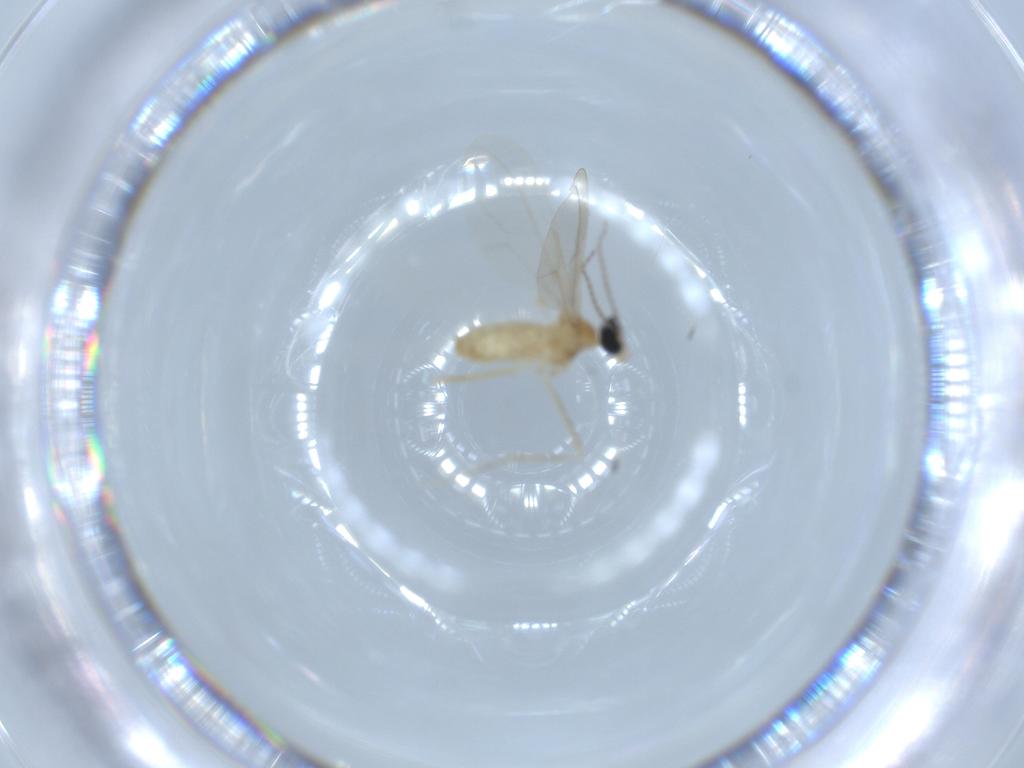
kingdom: Animalia
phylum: Arthropoda
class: Insecta
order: Diptera
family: Cecidomyiidae
